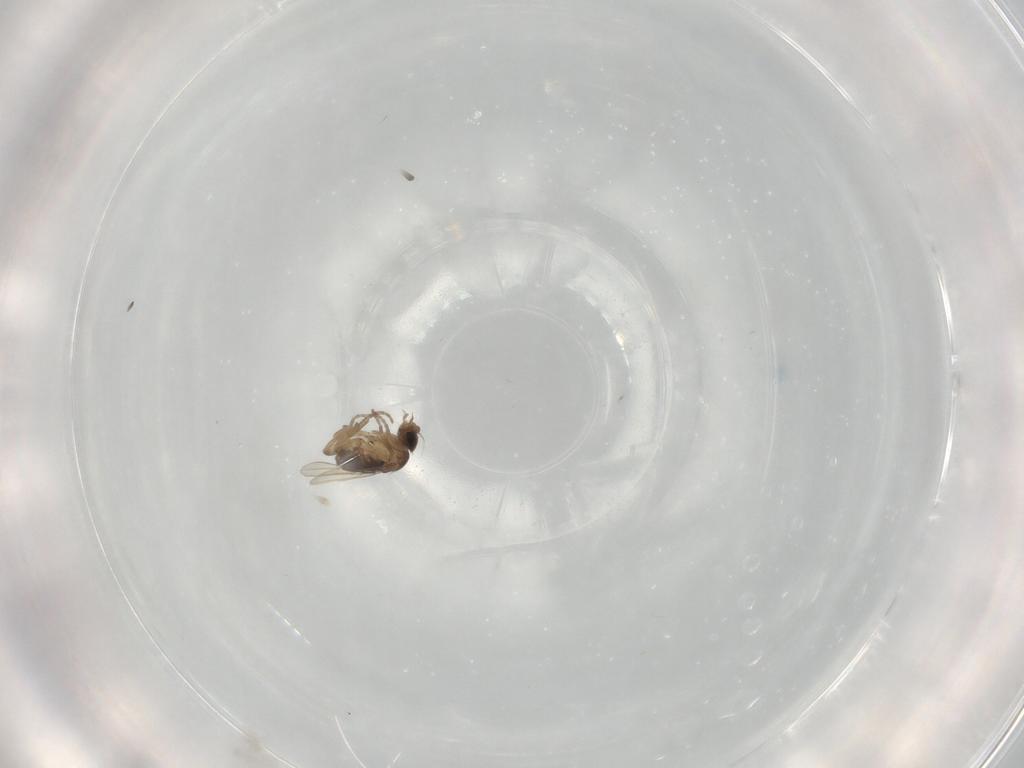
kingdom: Animalia
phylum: Arthropoda
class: Insecta
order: Diptera
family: Phoridae
